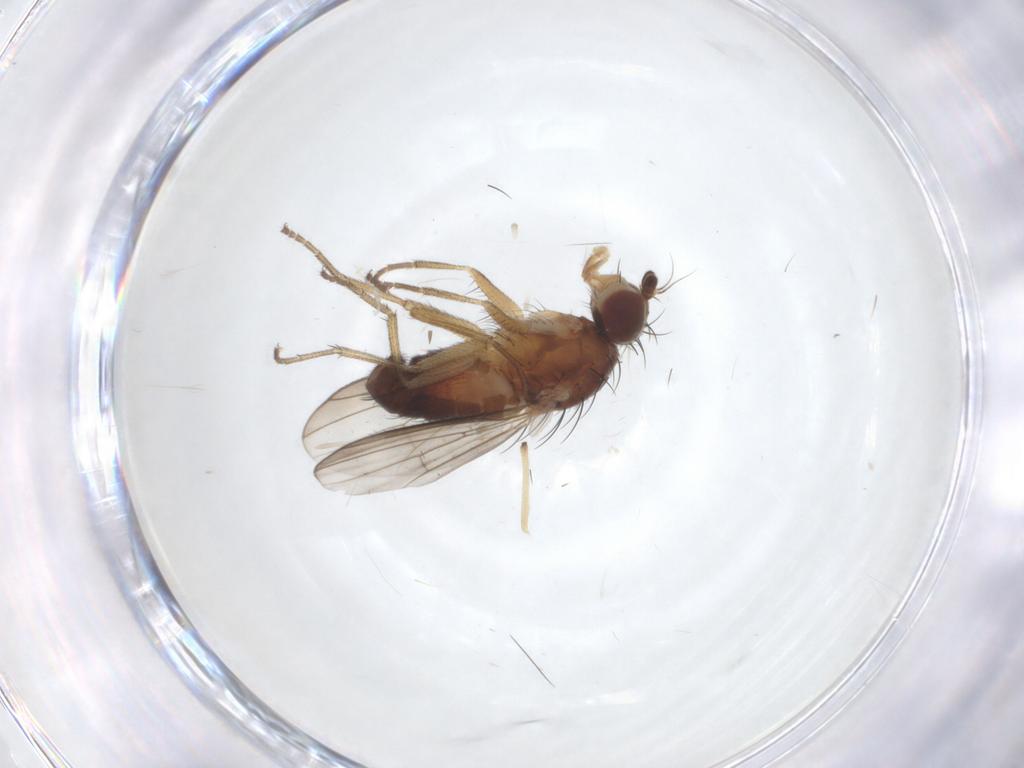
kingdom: Animalia
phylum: Arthropoda
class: Insecta
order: Diptera
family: Heleomyzidae
